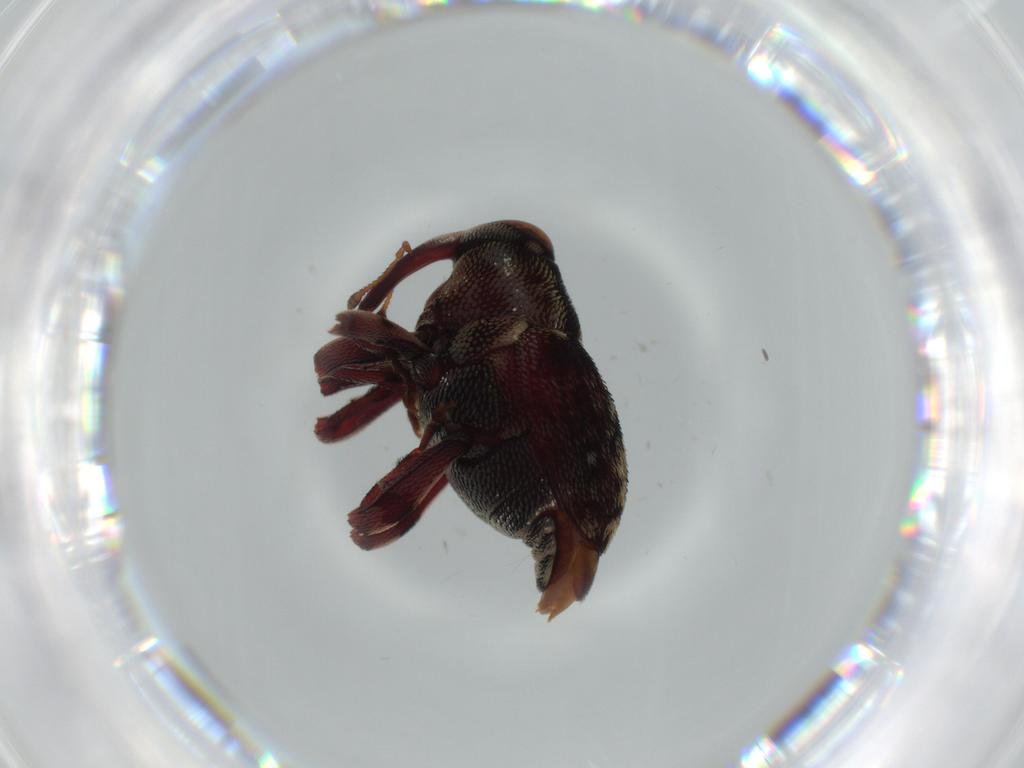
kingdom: Animalia
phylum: Arthropoda
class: Insecta
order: Coleoptera
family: Curculionidae
